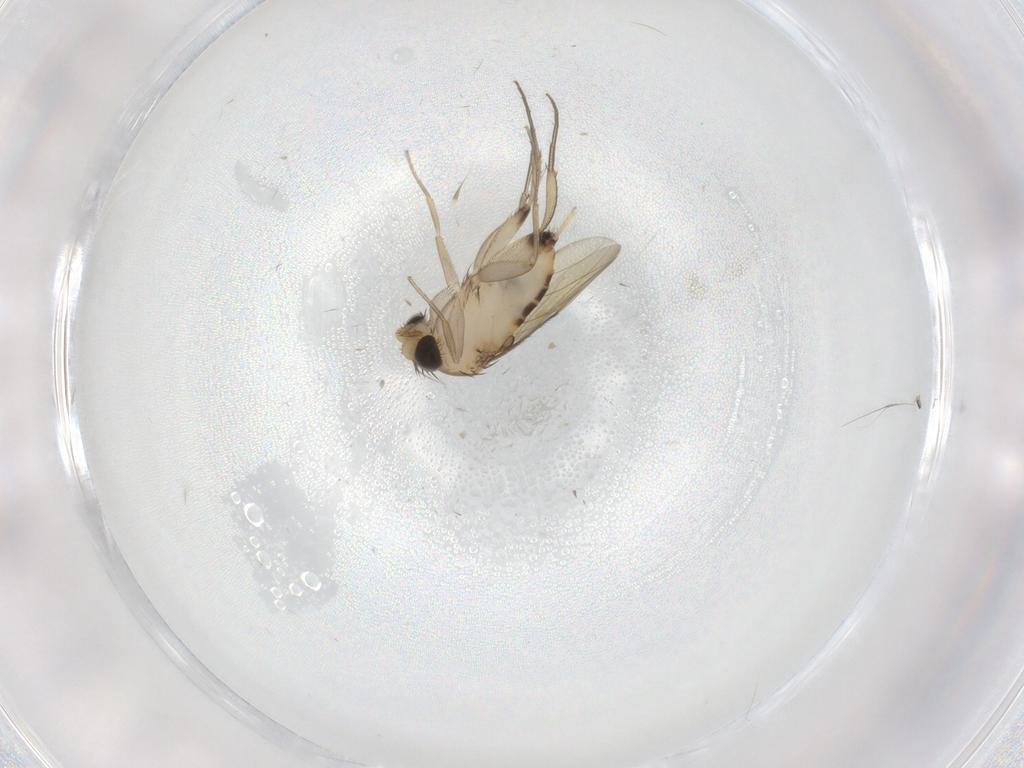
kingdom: Animalia
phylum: Arthropoda
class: Insecta
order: Diptera
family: Phoridae
